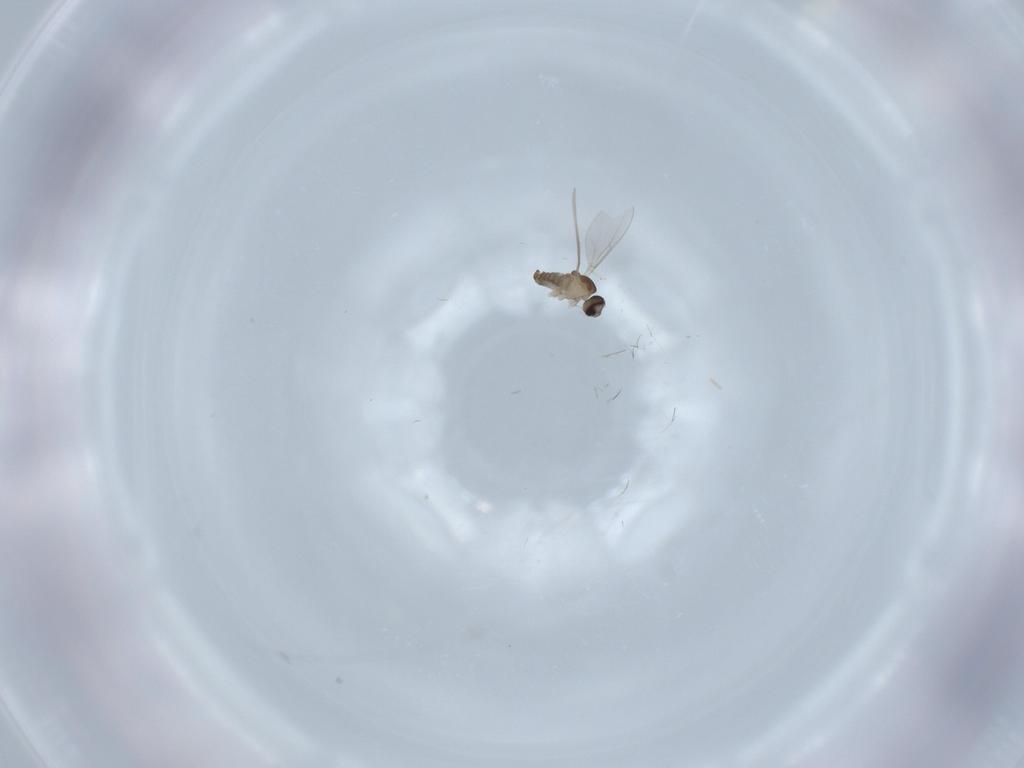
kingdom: Animalia
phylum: Arthropoda
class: Insecta
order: Diptera
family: Cecidomyiidae
